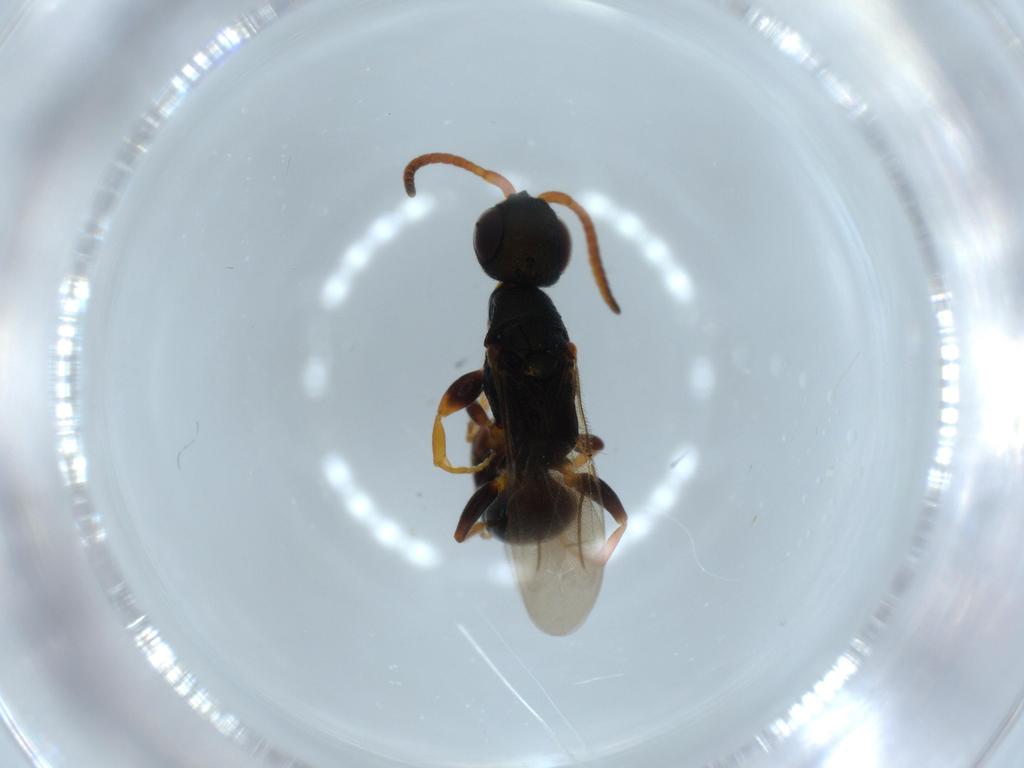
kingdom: Animalia
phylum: Arthropoda
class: Insecta
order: Hymenoptera
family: Bethylidae
